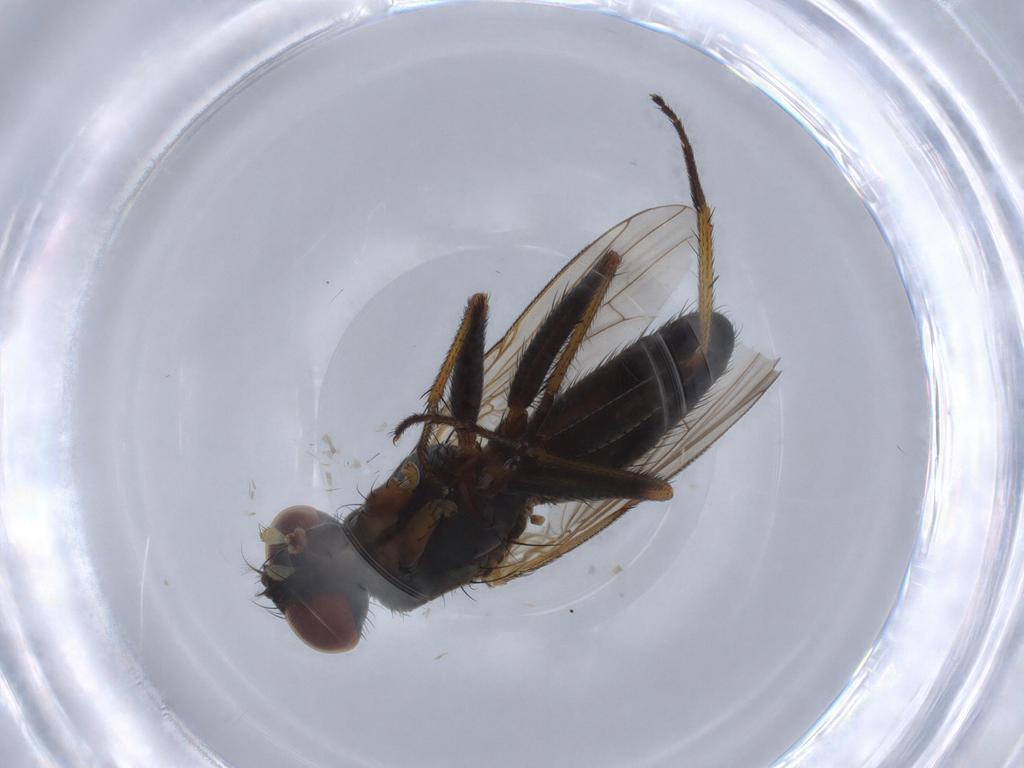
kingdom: Animalia
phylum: Arthropoda
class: Insecta
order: Diptera
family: Muscidae
